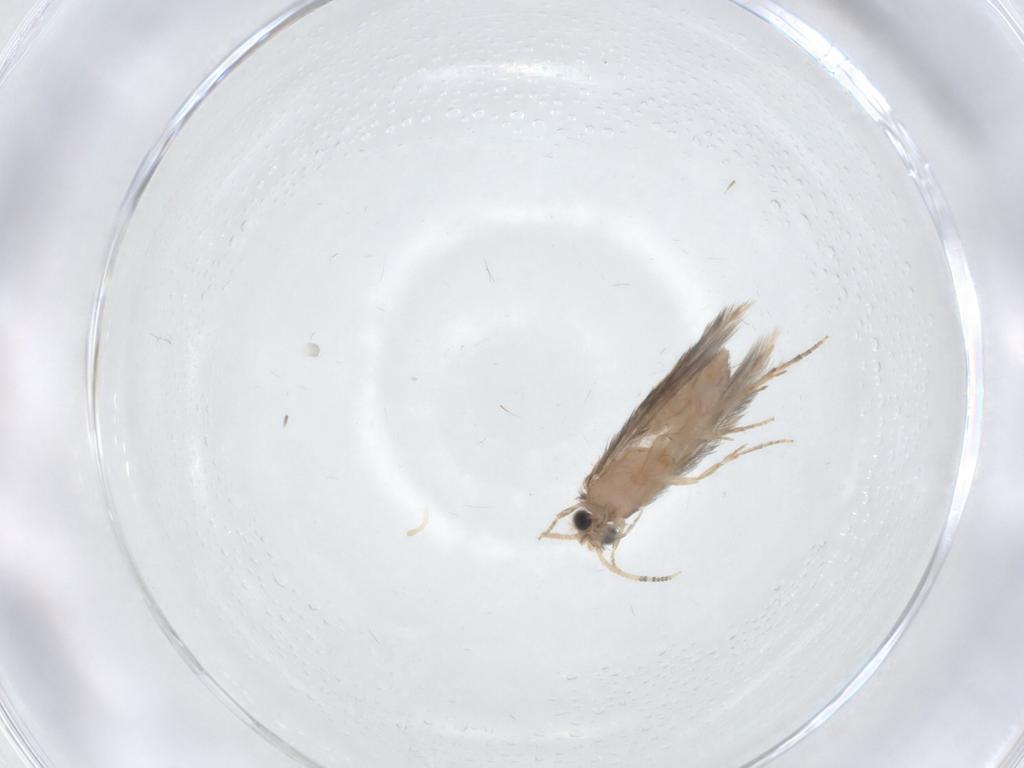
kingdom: Animalia
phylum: Arthropoda
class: Insecta
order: Trichoptera
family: Hydroptilidae
